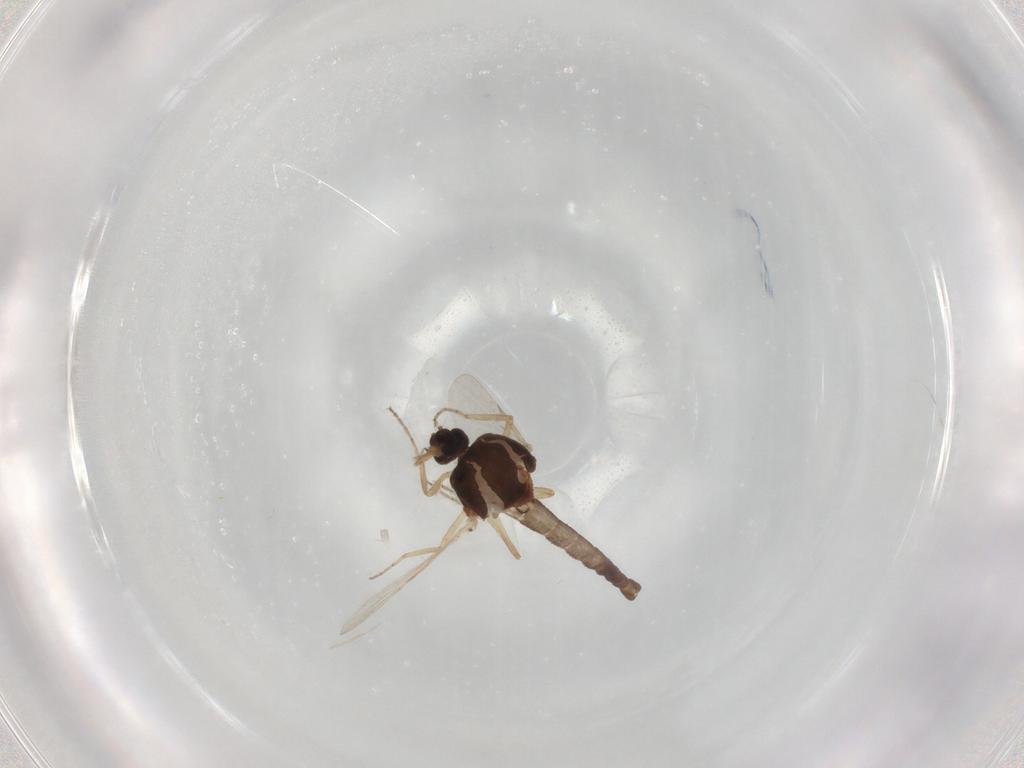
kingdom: Animalia
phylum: Arthropoda
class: Insecta
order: Diptera
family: Ceratopogonidae
